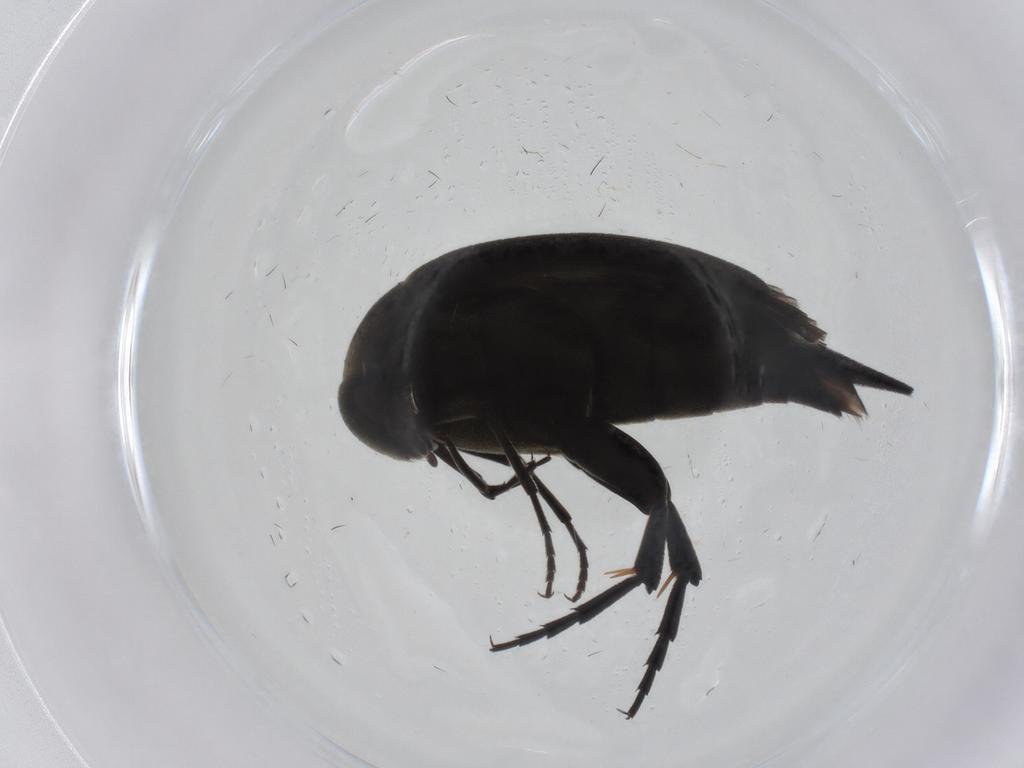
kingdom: Animalia
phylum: Arthropoda
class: Insecta
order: Coleoptera
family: Mordellidae
